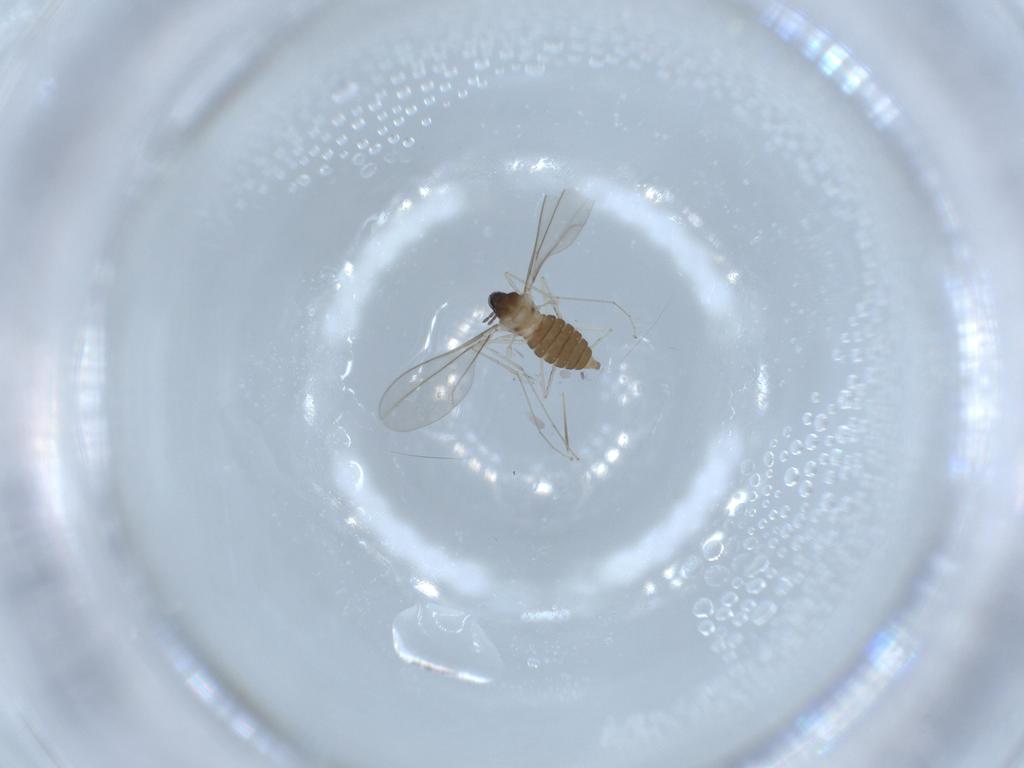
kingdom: Animalia
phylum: Arthropoda
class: Insecta
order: Diptera
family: Cecidomyiidae
